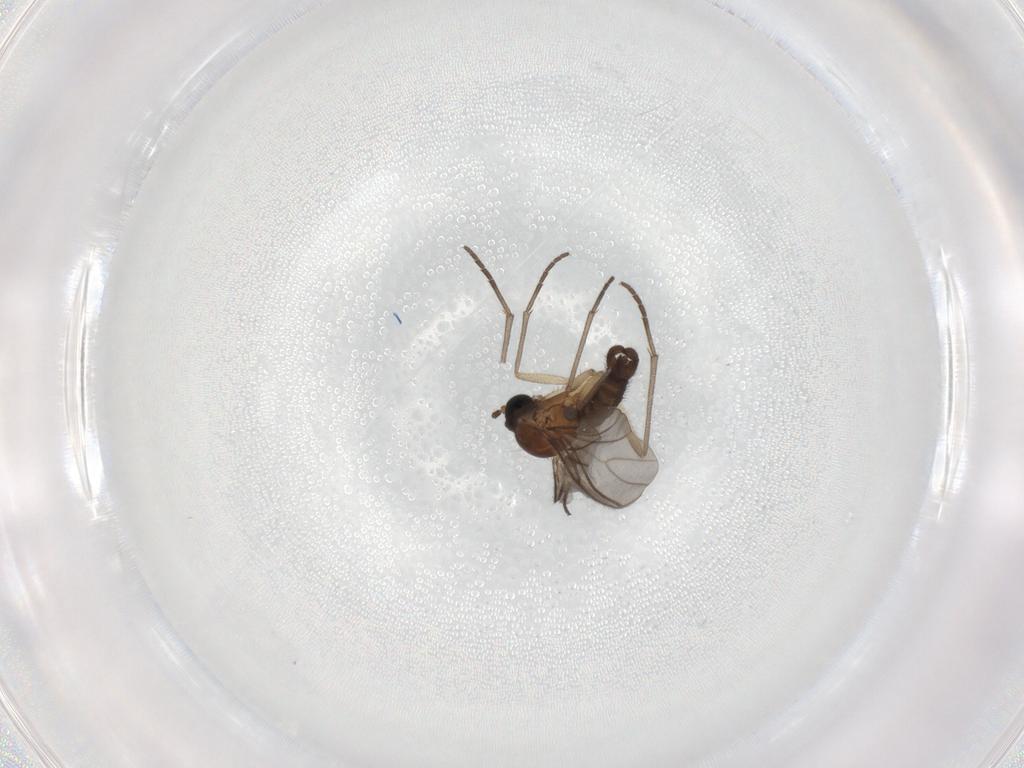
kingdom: Animalia
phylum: Arthropoda
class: Insecta
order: Diptera
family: Sciaridae
